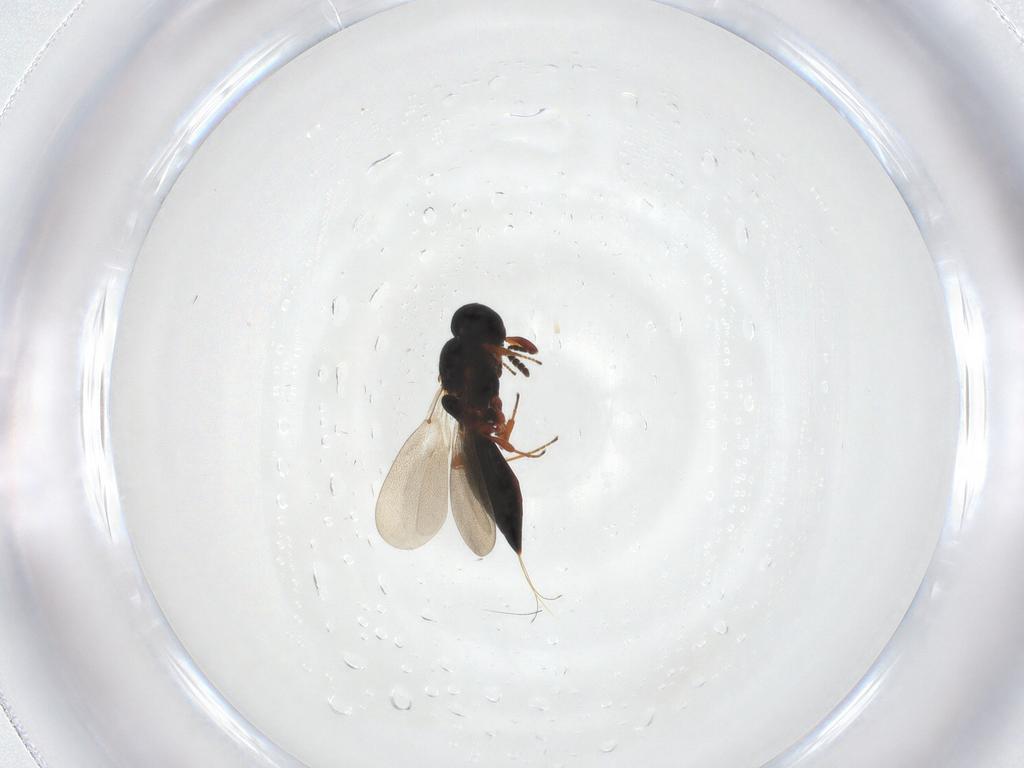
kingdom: Animalia
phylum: Arthropoda
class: Insecta
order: Hymenoptera
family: Platygastridae
